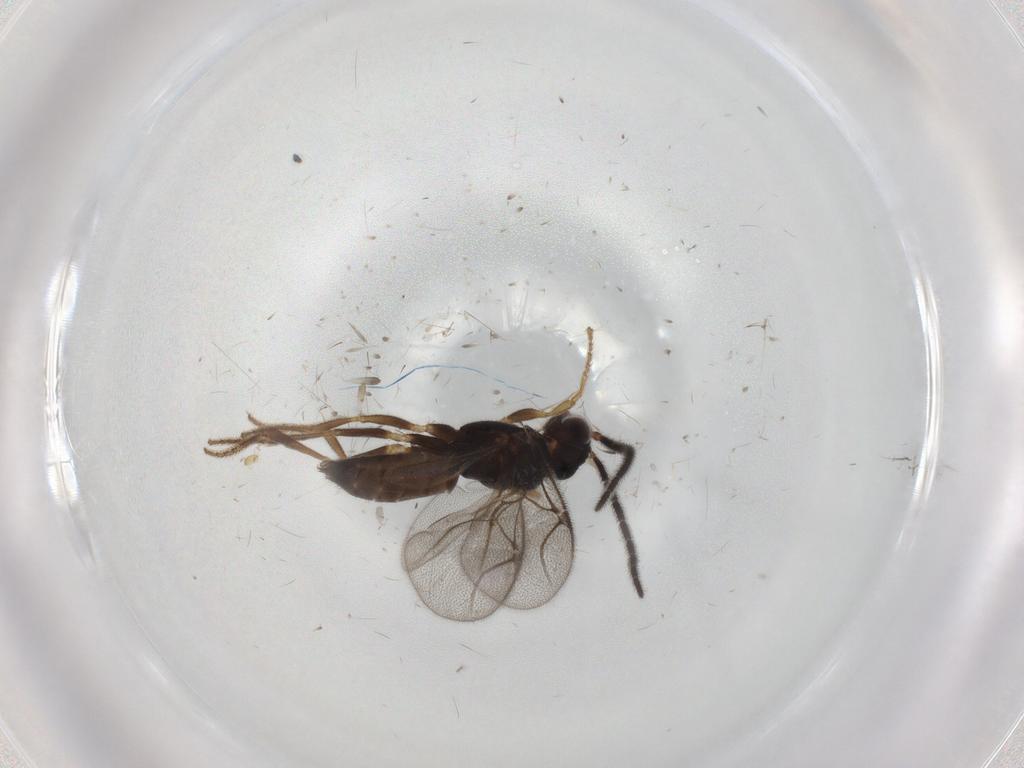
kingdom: Animalia
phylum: Arthropoda
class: Insecta
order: Hymenoptera
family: Dryinidae
